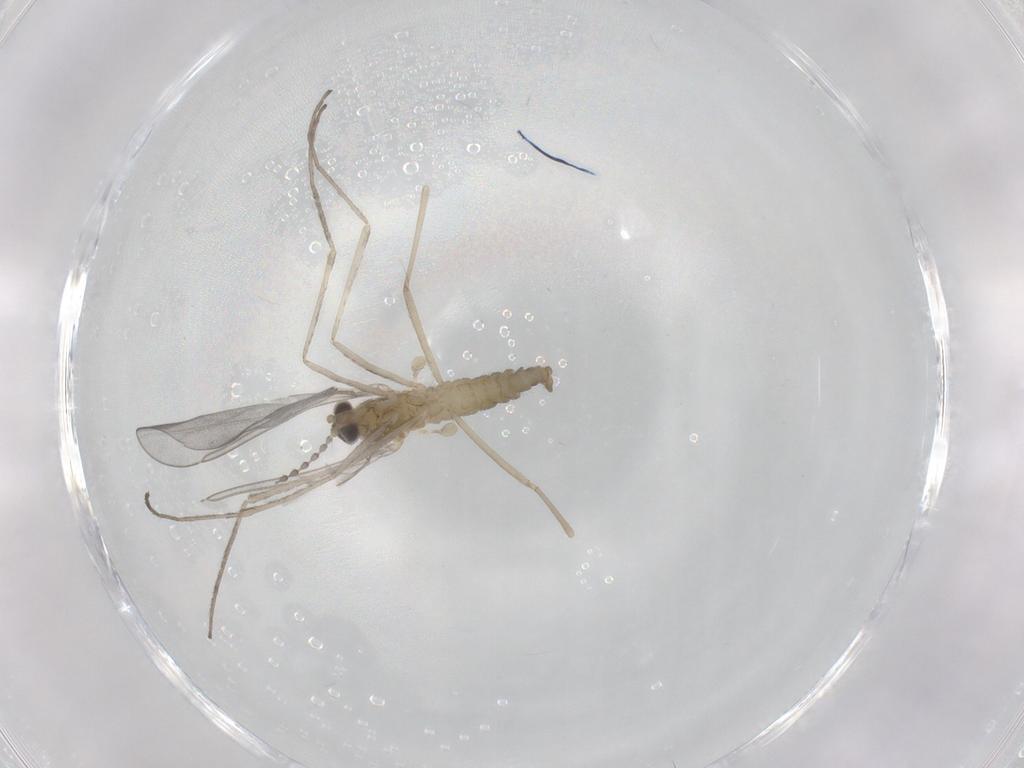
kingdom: Animalia
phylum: Arthropoda
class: Insecta
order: Diptera
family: Cecidomyiidae
